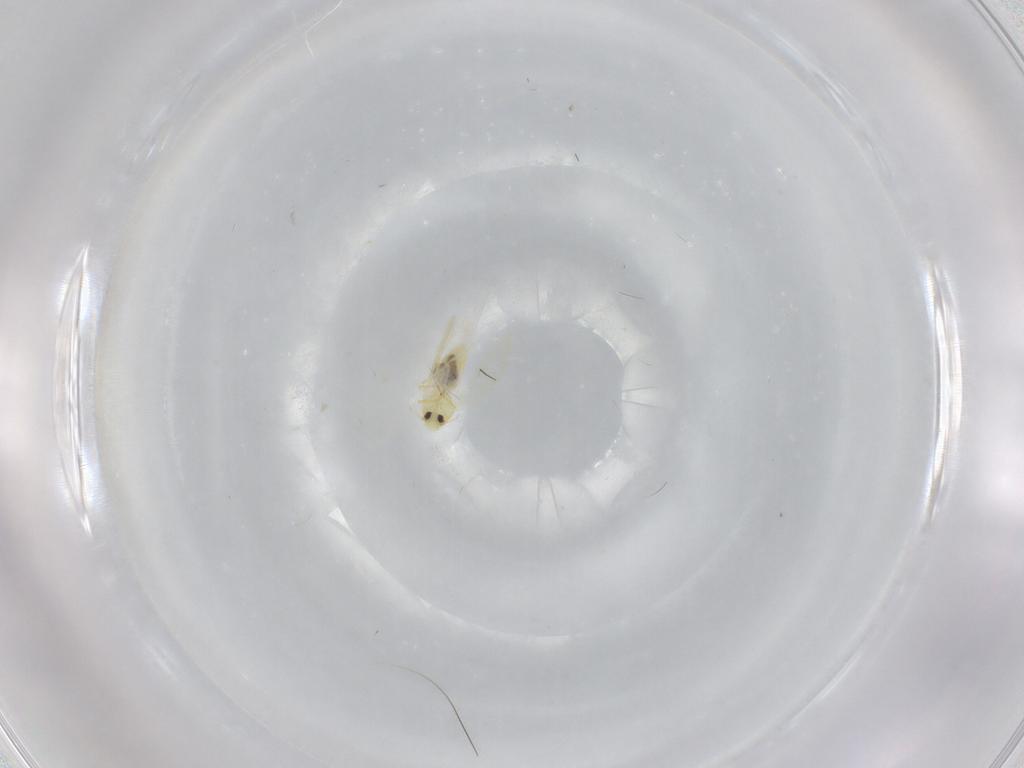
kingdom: Animalia
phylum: Arthropoda
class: Insecta
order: Hemiptera
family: Aleyrodidae
